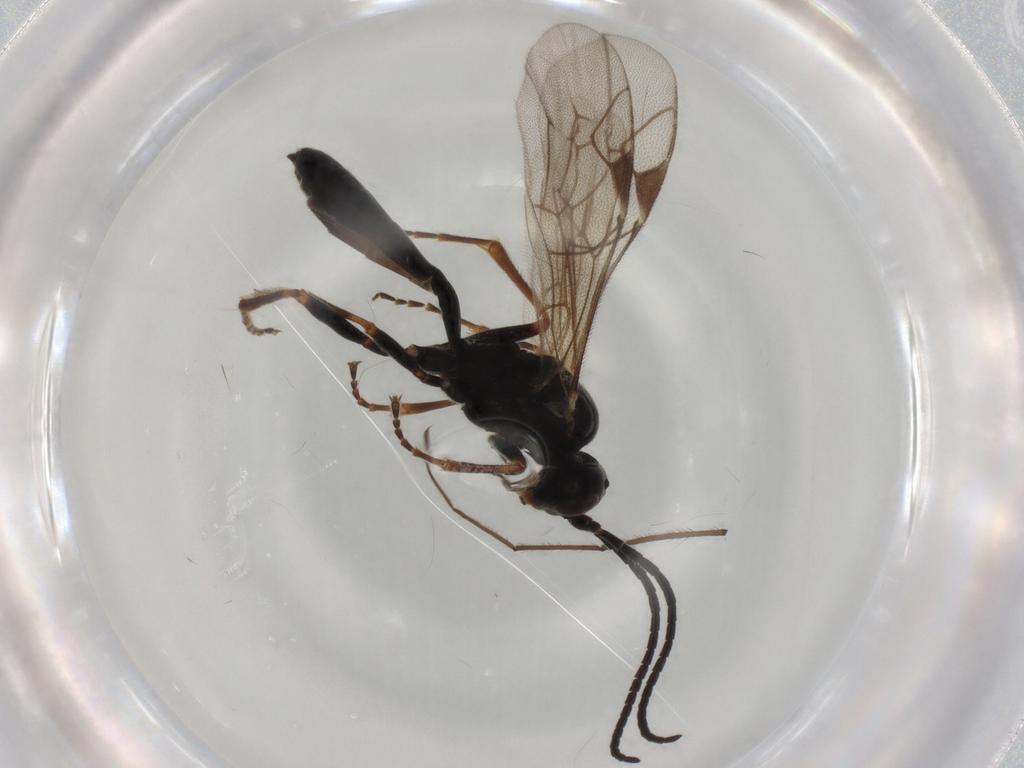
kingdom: Animalia
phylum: Arthropoda
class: Insecta
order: Hymenoptera
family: Ichneumonidae
